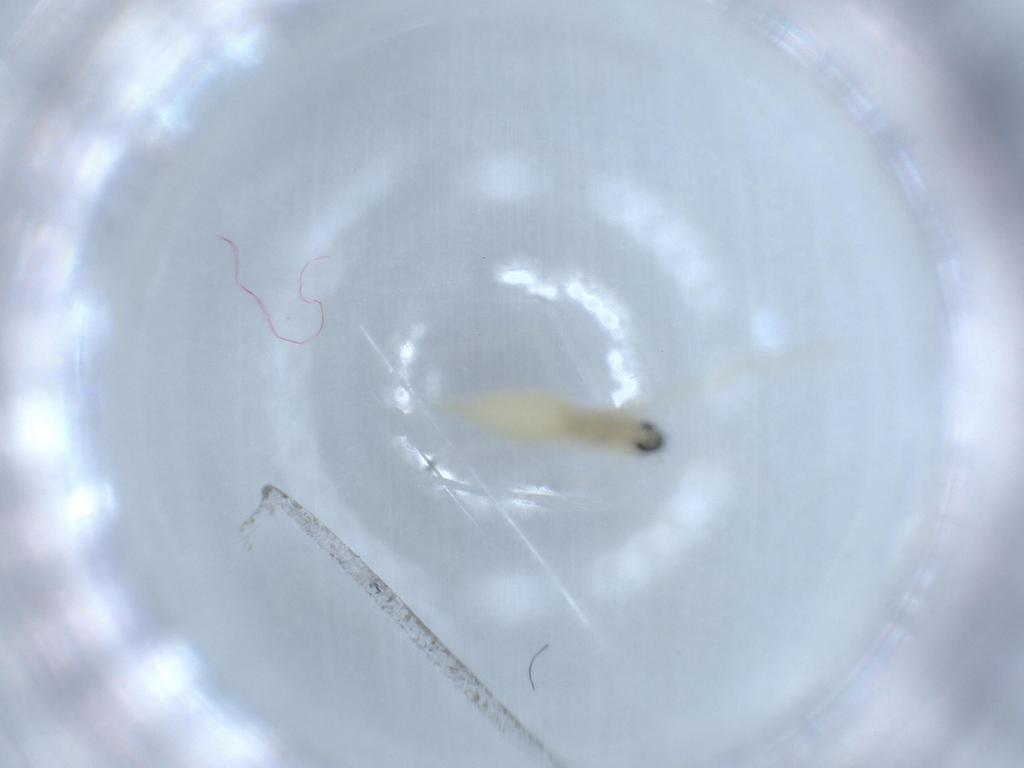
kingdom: Animalia
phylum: Arthropoda
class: Insecta
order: Diptera
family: Cecidomyiidae
